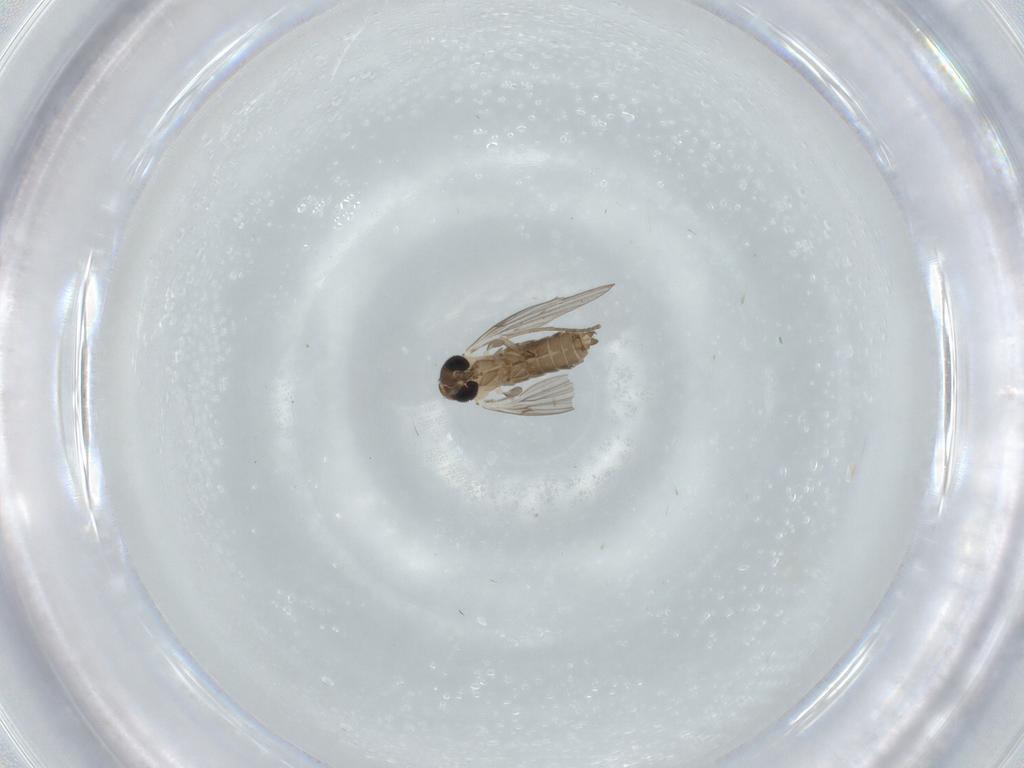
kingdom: Animalia
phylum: Arthropoda
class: Insecta
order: Diptera
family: Psychodidae
